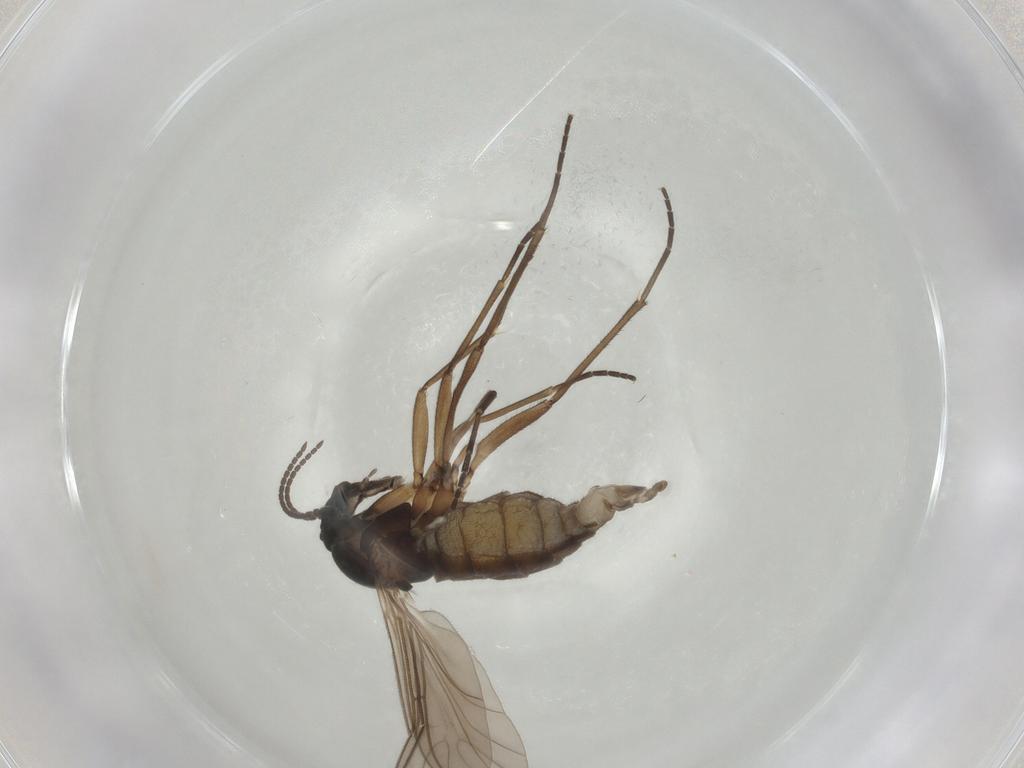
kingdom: Animalia
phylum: Arthropoda
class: Insecta
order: Diptera
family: Sciaridae
